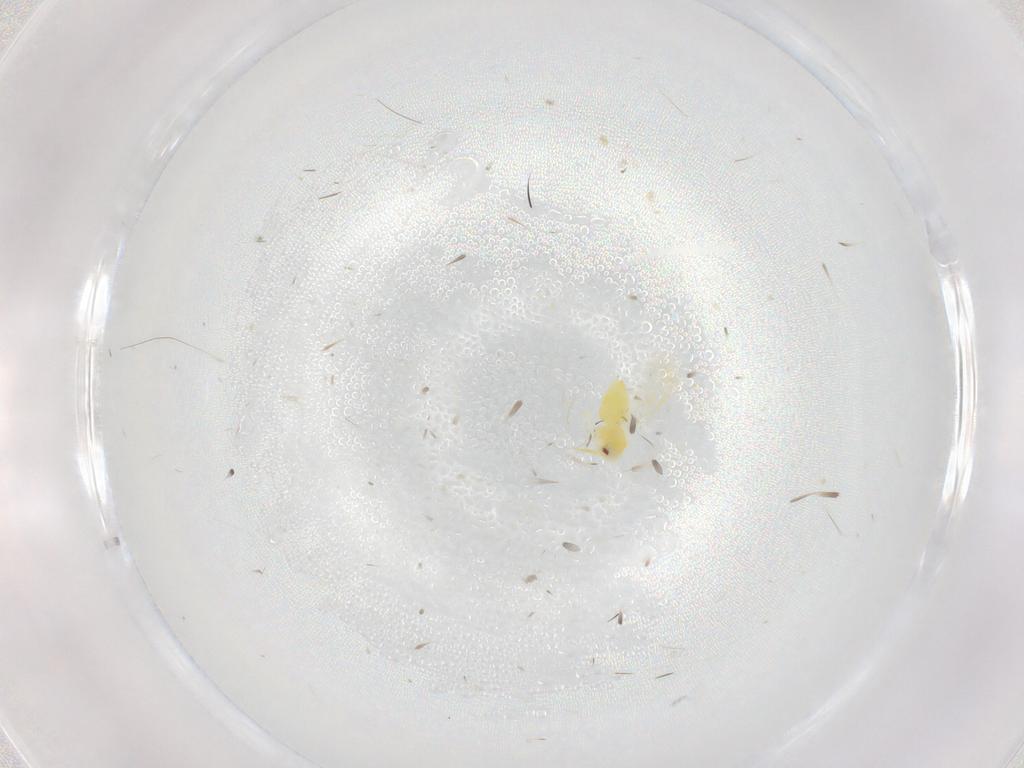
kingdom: Animalia
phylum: Arthropoda
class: Insecta
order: Hemiptera
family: Aleyrodidae
